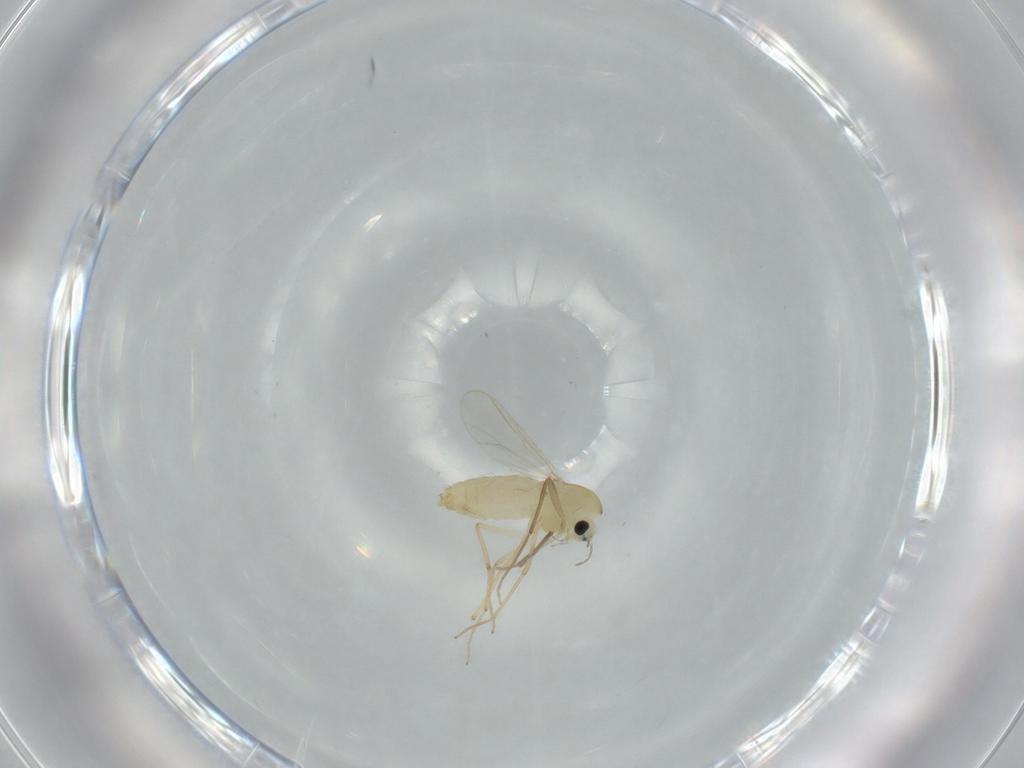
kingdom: Animalia
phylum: Arthropoda
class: Insecta
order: Diptera
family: Chironomidae
